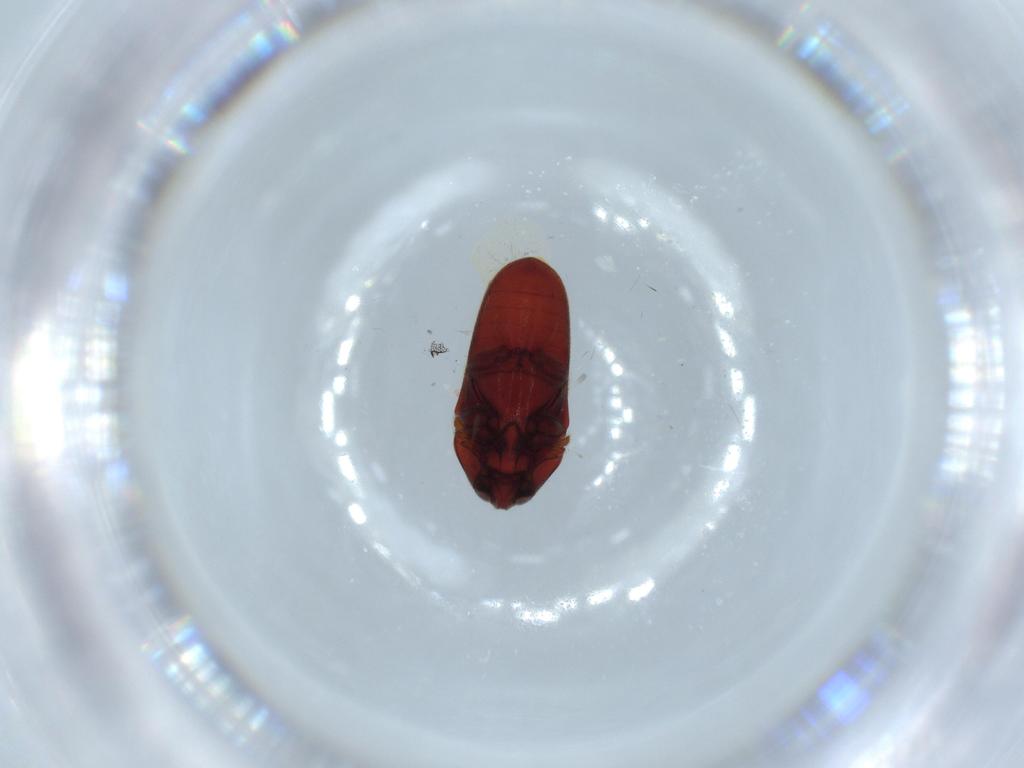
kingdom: Animalia
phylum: Arthropoda
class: Insecta
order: Coleoptera
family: Throscidae
